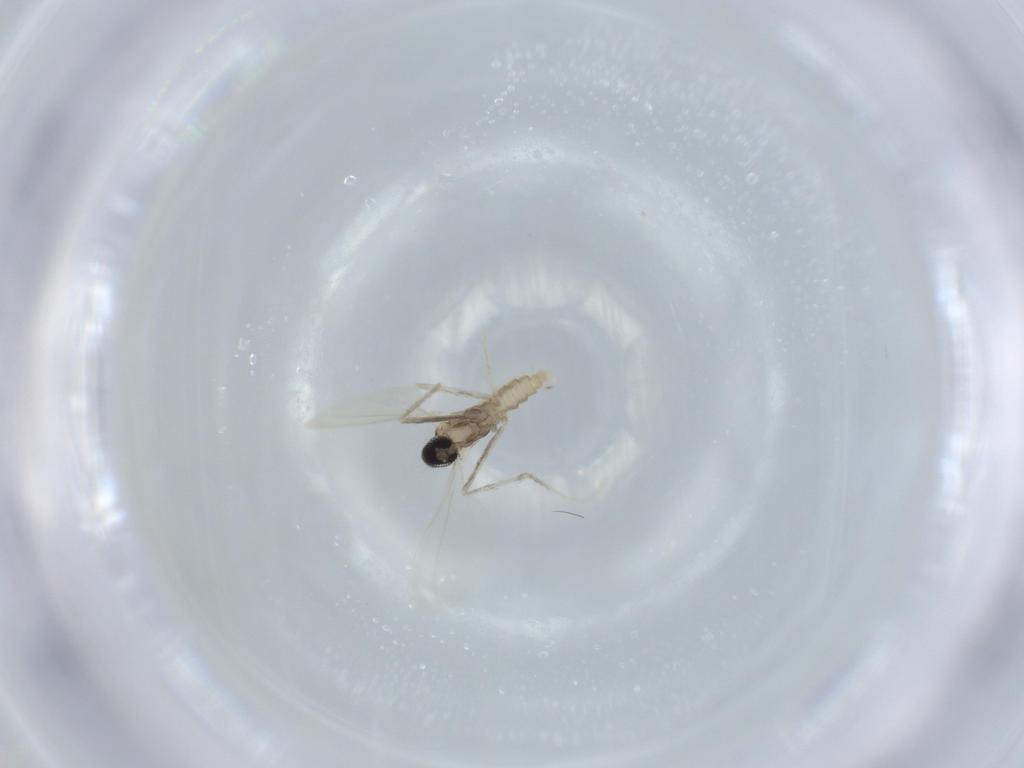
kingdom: Animalia
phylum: Arthropoda
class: Insecta
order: Diptera
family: Cecidomyiidae
